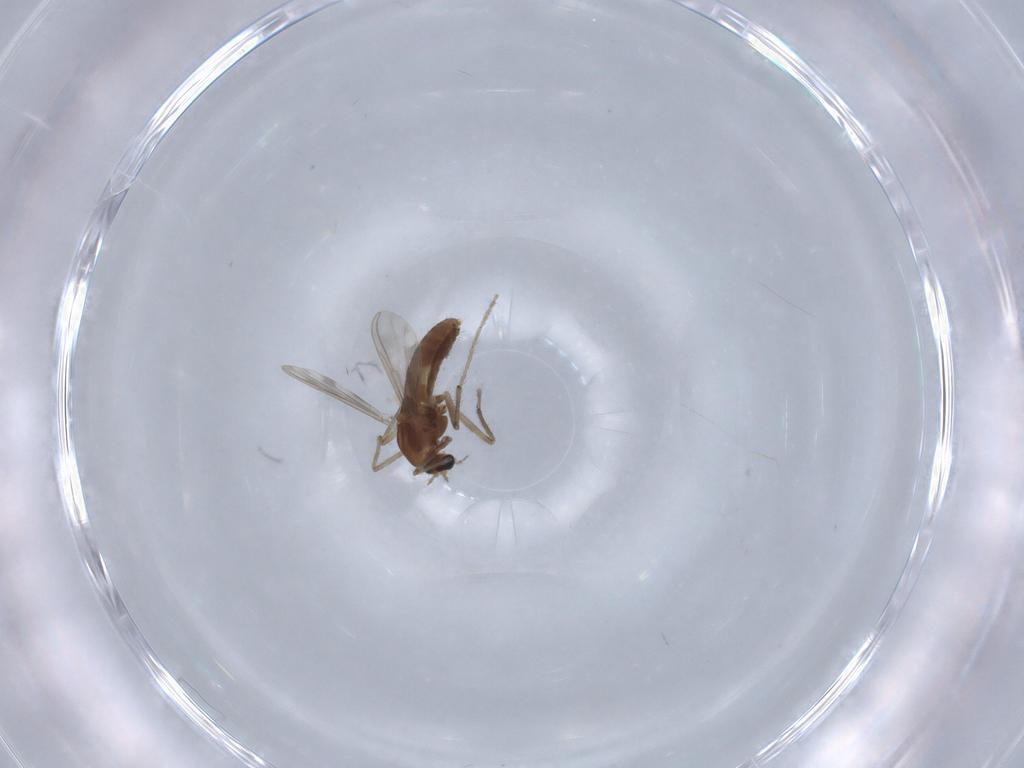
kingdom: Animalia
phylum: Arthropoda
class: Insecta
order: Diptera
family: Chironomidae
